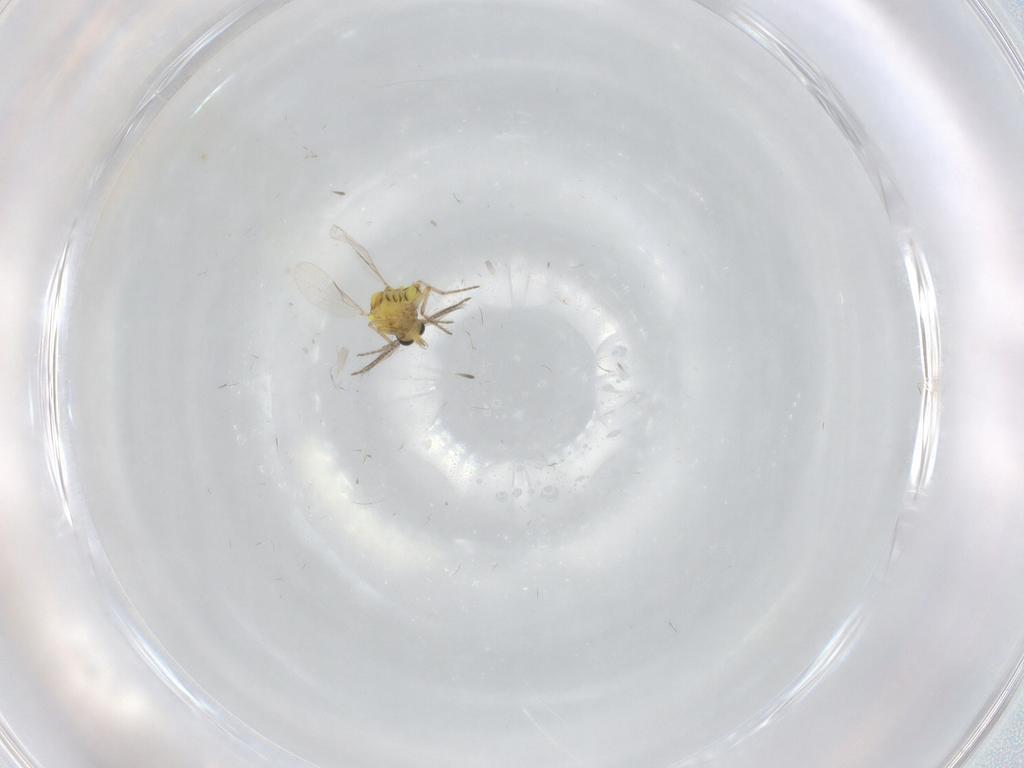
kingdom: Animalia
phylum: Arthropoda
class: Insecta
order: Diptera
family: Ceratopogonidae
